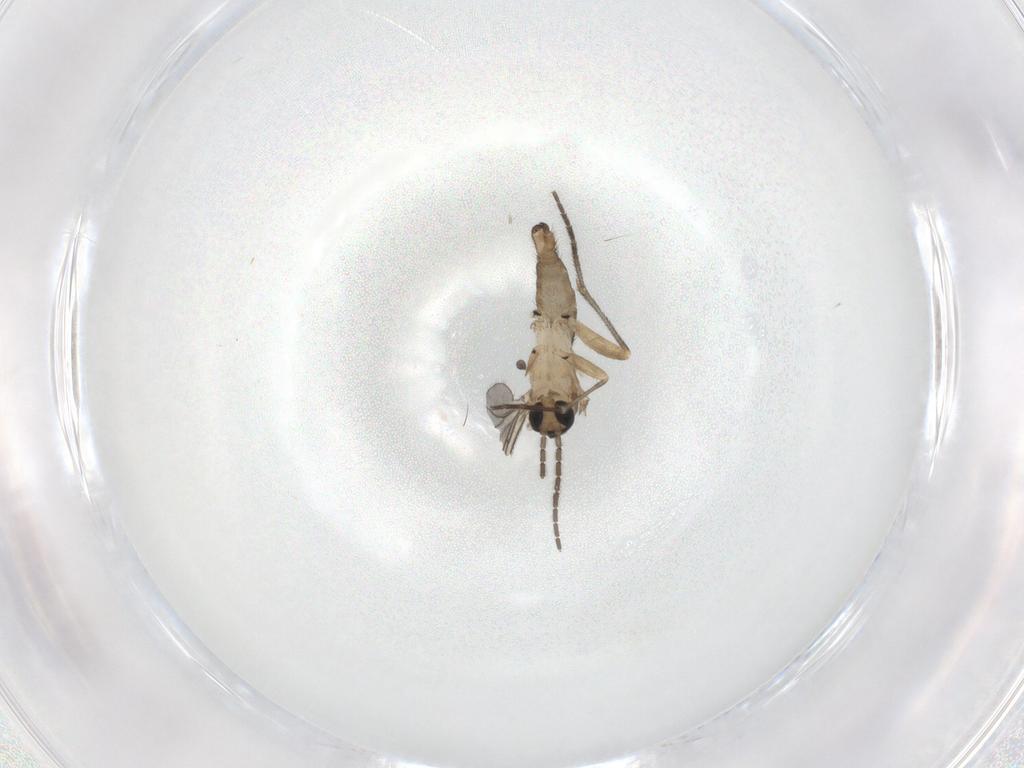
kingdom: Animalia
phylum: Arthropoda
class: Insecta
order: Diptera
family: Sciaridae
